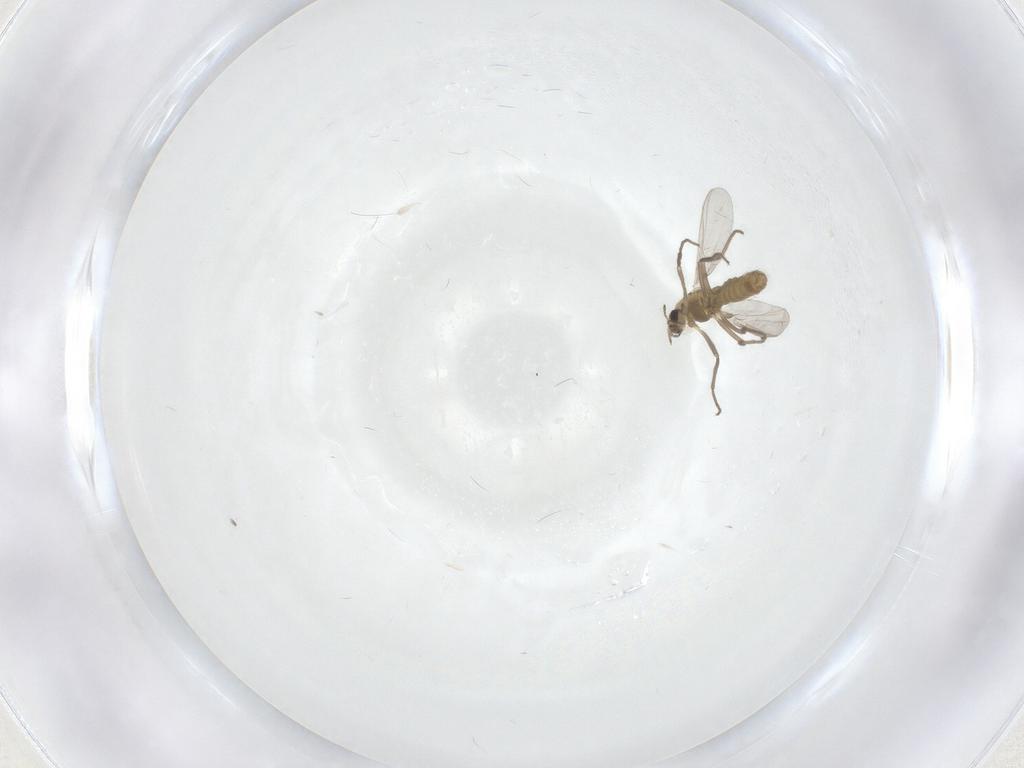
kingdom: Animalia
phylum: Arthropoda
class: Insecta
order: Diptera
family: Chironomidae
